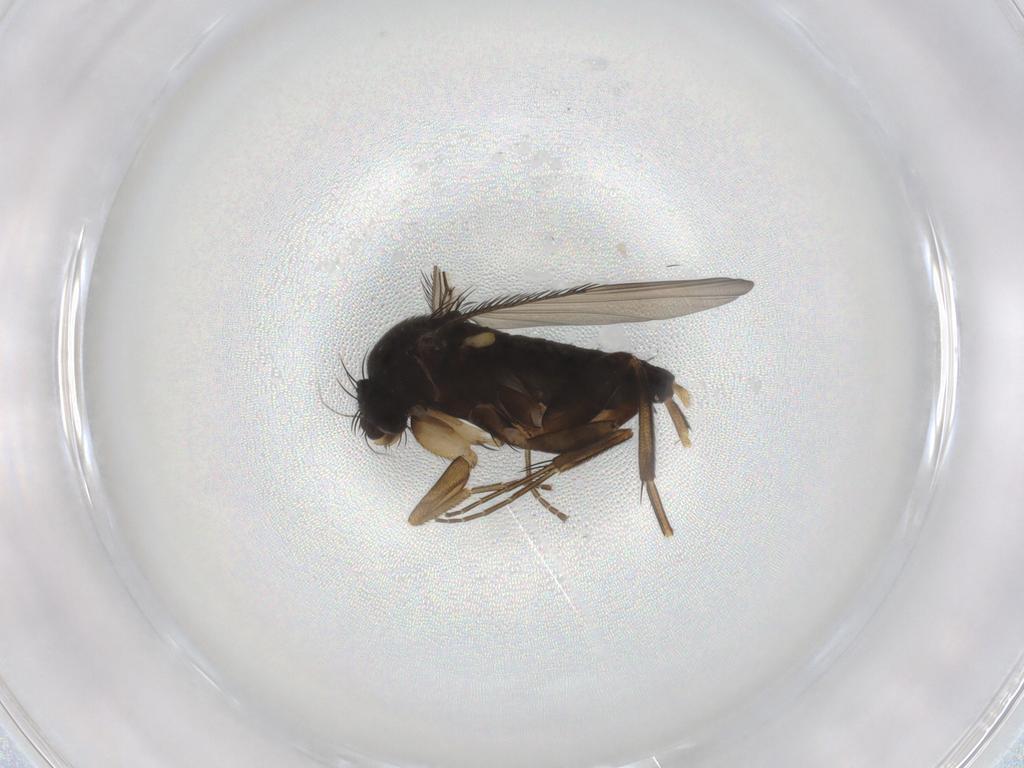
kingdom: Animalia
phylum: Arthropoda
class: Insecta
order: Diptera
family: Phoridae
